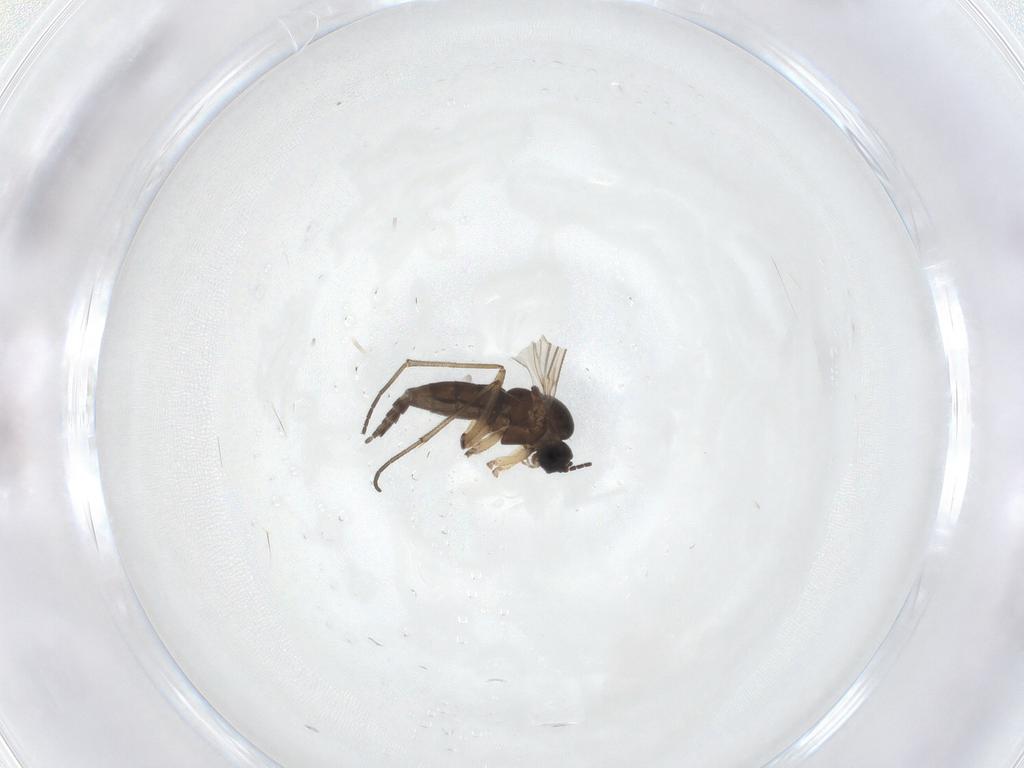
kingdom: Animalia
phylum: Arthropoda
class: Insecta
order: Diptera
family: Sciaridae
